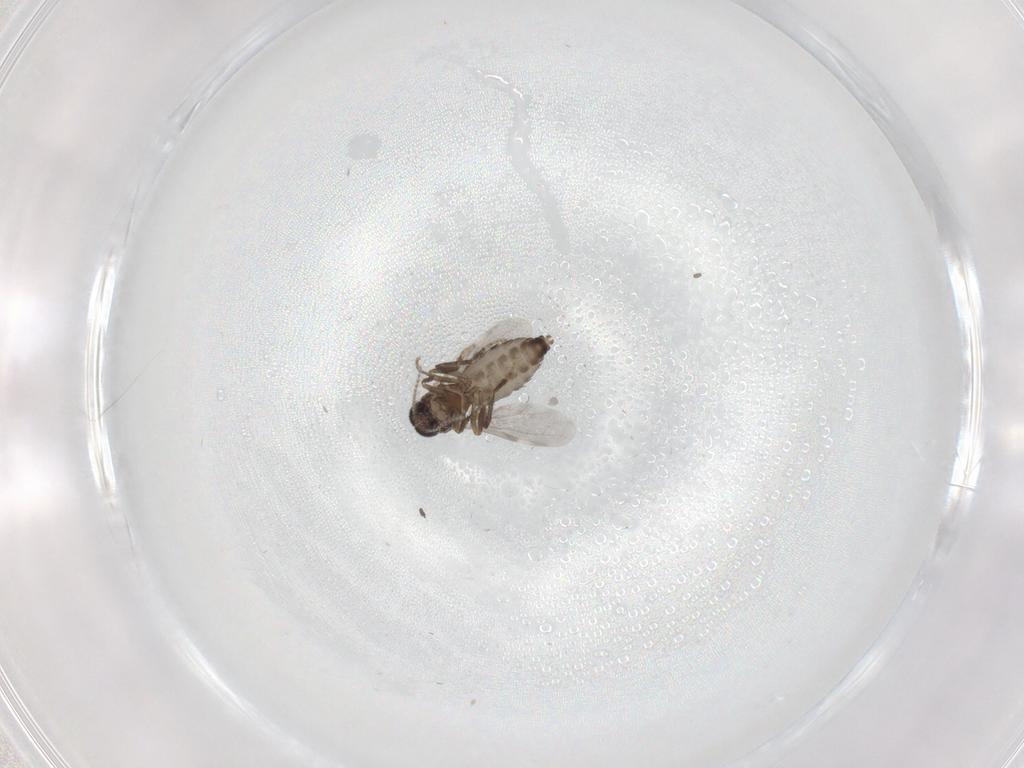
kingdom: Animalia
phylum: Arthropoda
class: Insecta
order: Diptera
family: Ceratopogonidae
